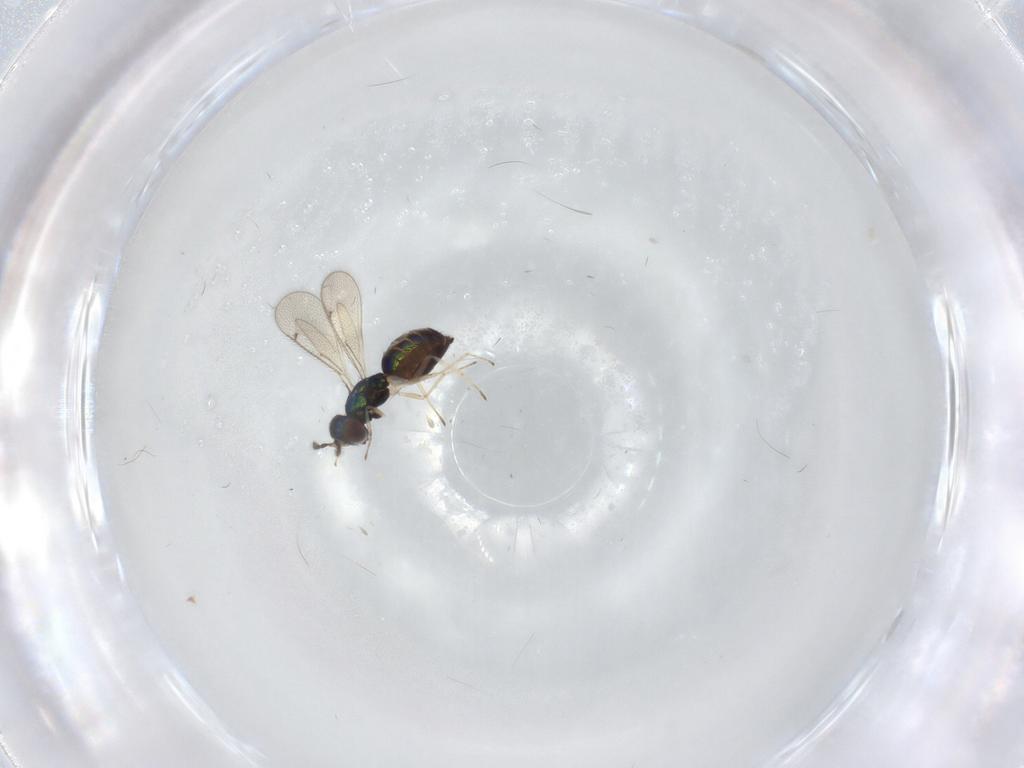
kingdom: Animalia
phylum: Arthropoda
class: Insecta
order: Hymenoptera
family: Eulophidae
